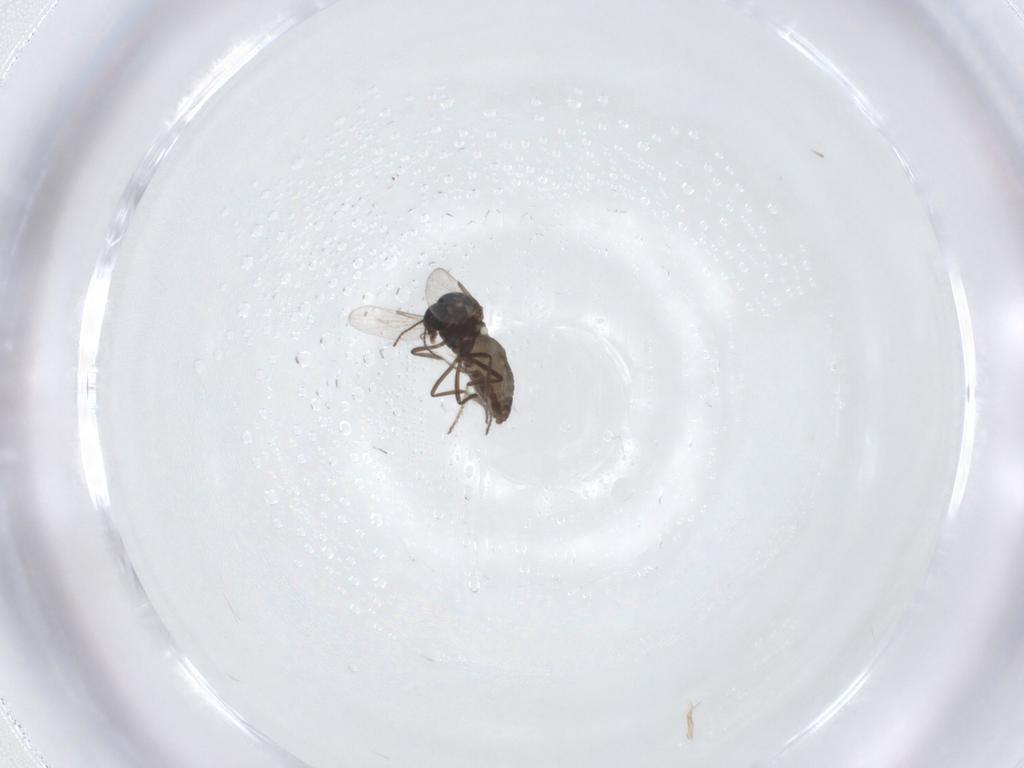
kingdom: Animalia
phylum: Arthropoda
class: Insecta
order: Diptera
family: Ceratopogonidae
